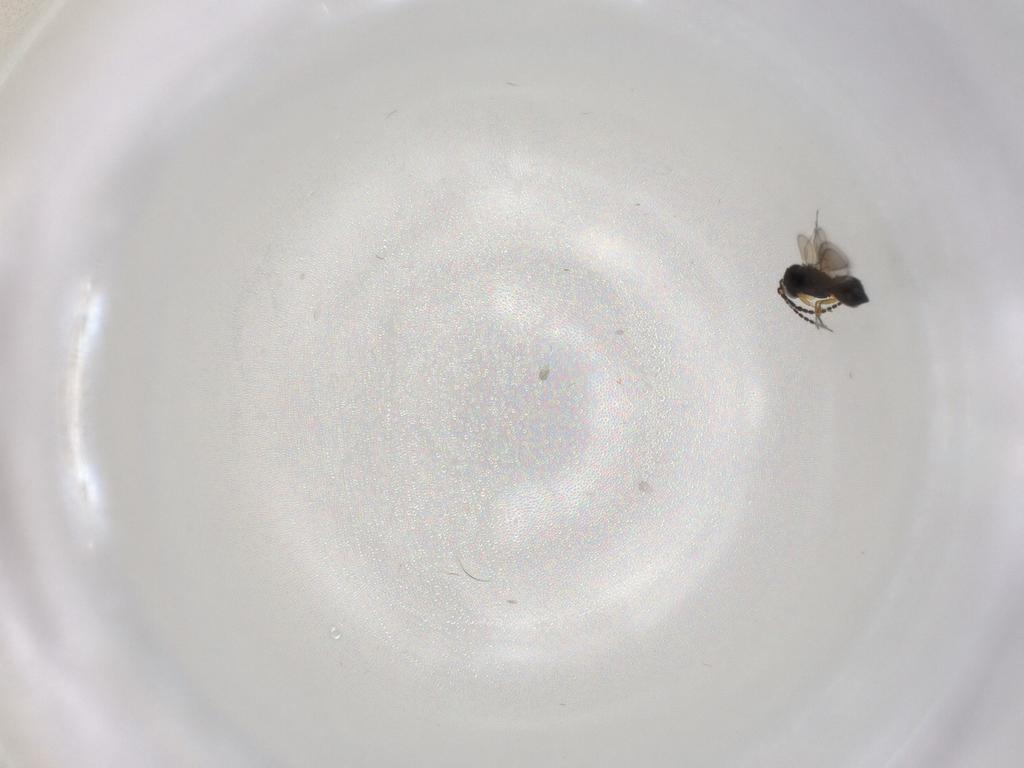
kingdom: Animalia
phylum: Arthropoda
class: Insecta
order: Hymenoptera
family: Scelionidae
